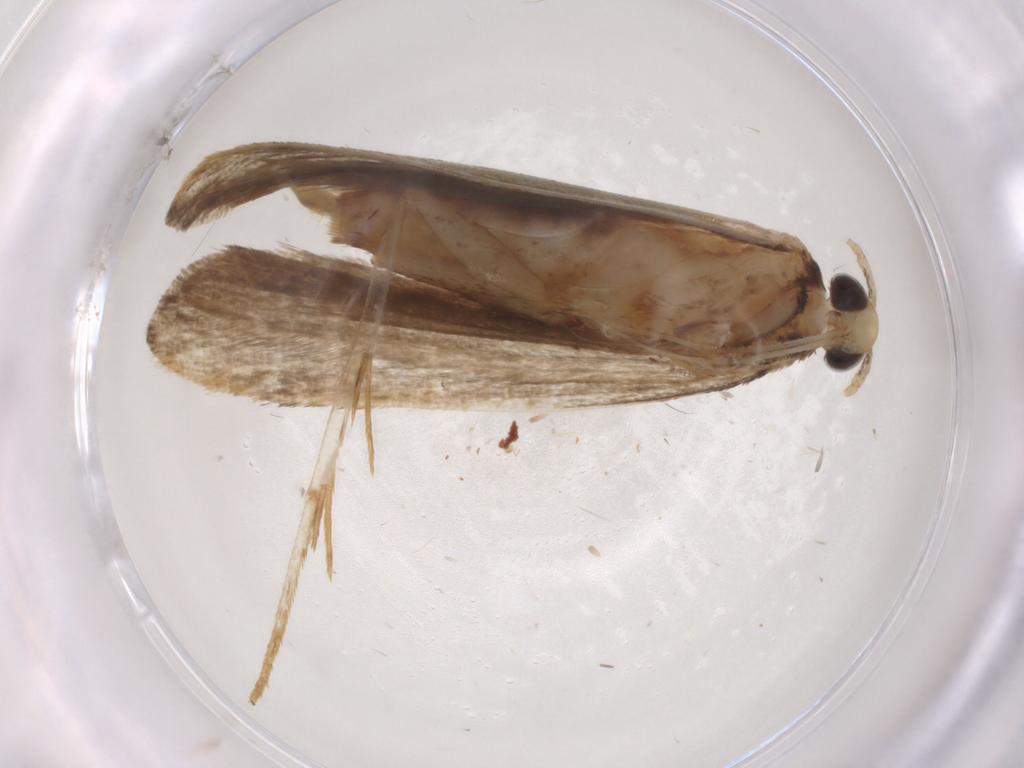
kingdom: Animalia
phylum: Arthropoda
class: Insecta
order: Lepidoptera
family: Autostichidae
